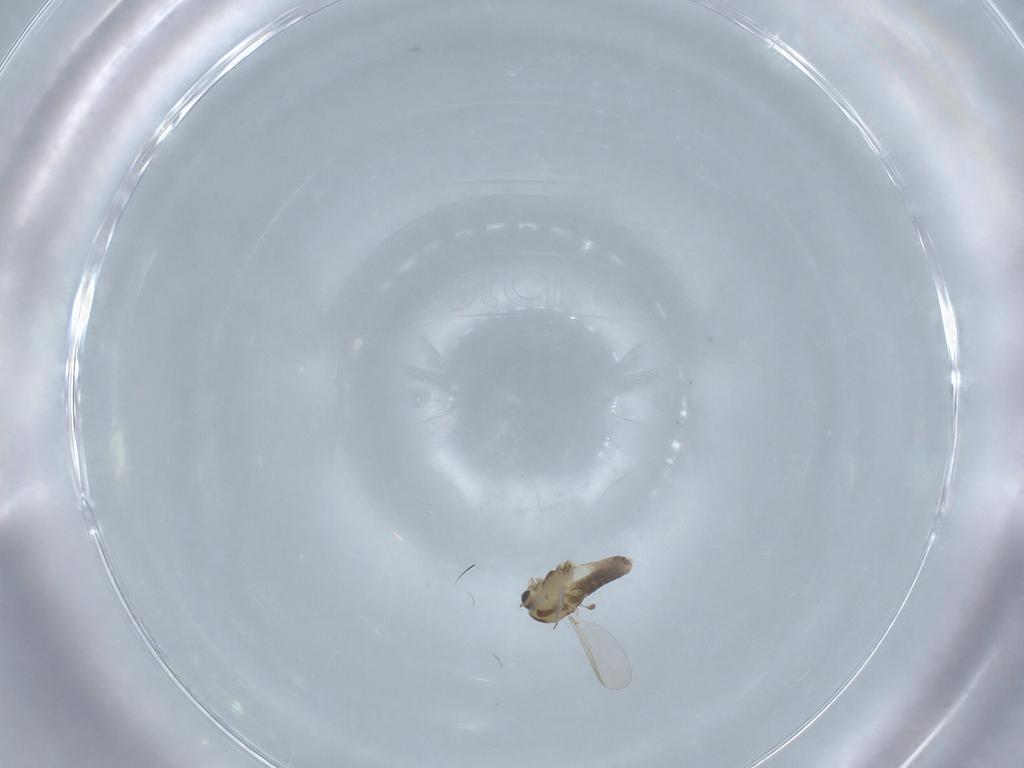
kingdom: Animalia
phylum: Arthropoda
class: Insecta
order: Diptera
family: Chironomidae
